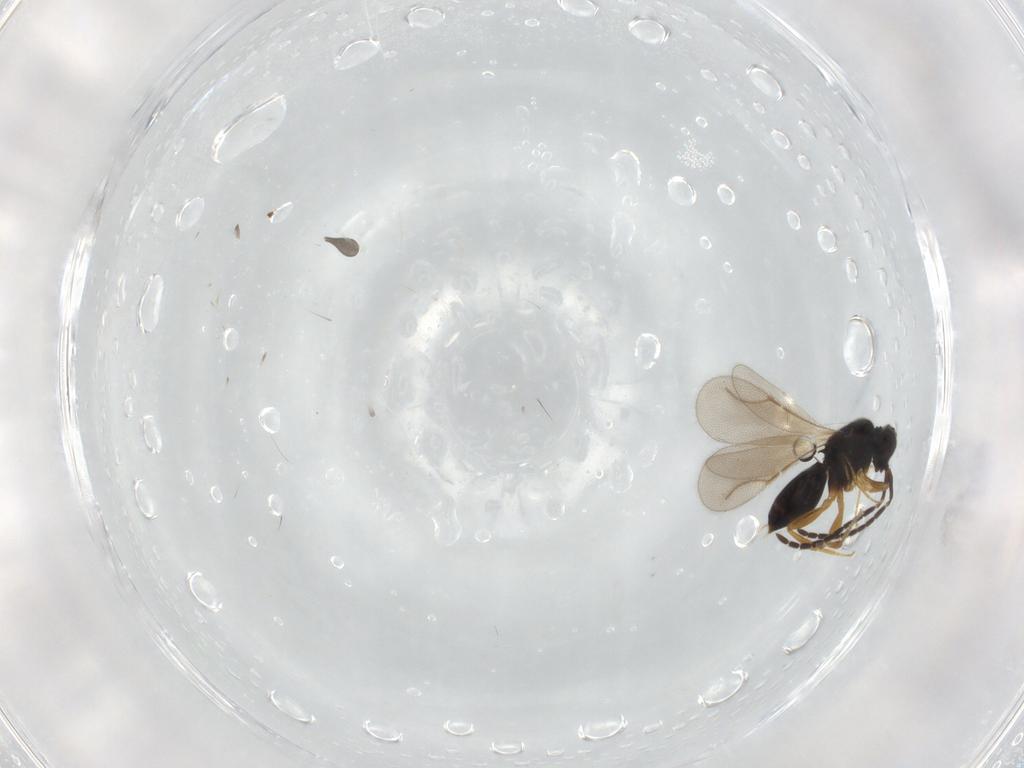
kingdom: Animalia
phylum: Arthropoda
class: Insecta
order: Hymenoptera
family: Scelionidae
